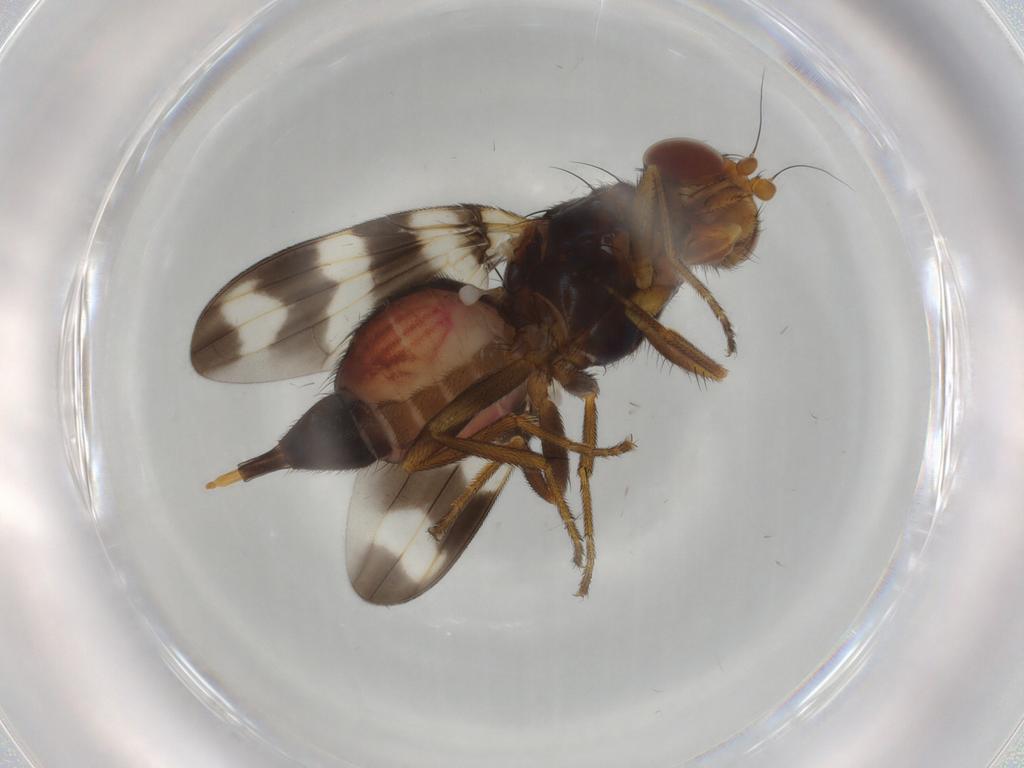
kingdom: Animalia
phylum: Arthropoda
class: Insecta
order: Diptera
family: Ulidiidae
